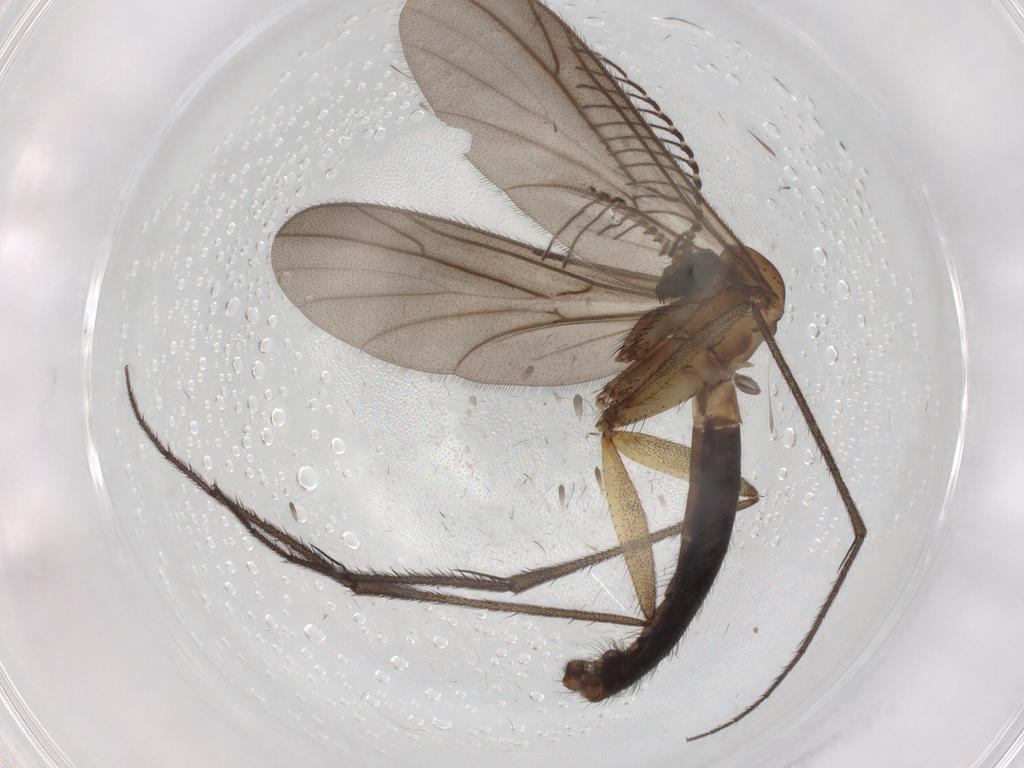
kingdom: Animalia
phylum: Arthropoda
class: Insecta
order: Diptera
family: Ditomyiidae
